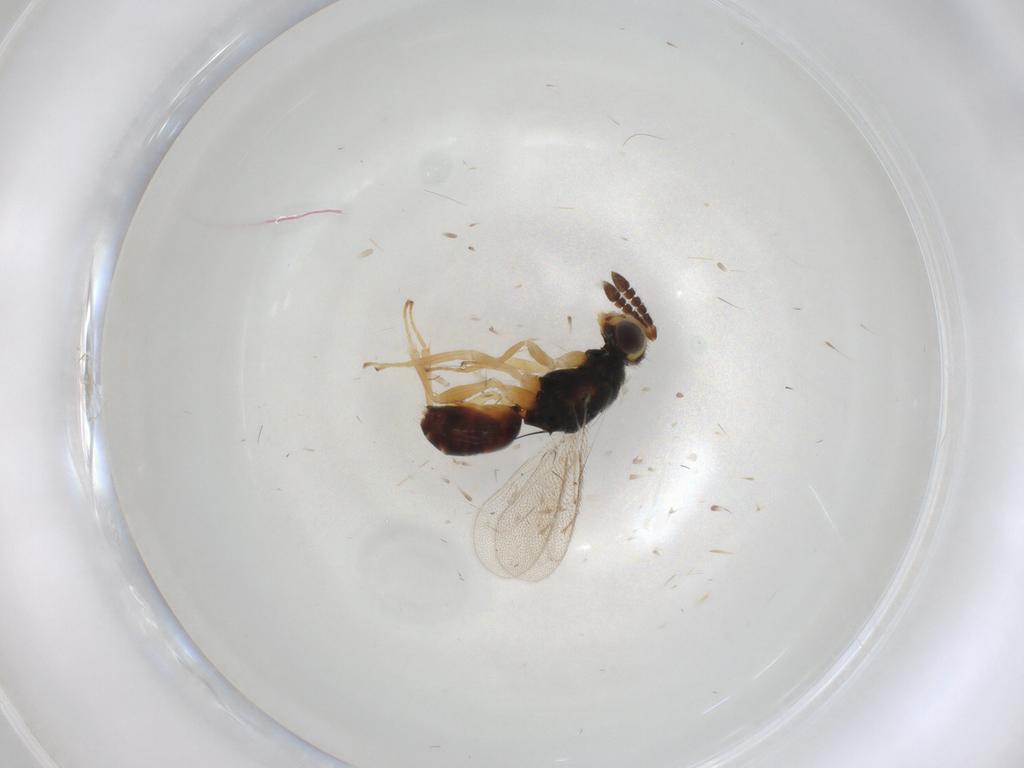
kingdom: Animalia
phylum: Arthropoda
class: Insecta
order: Hymenoptera
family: Eulophidae
